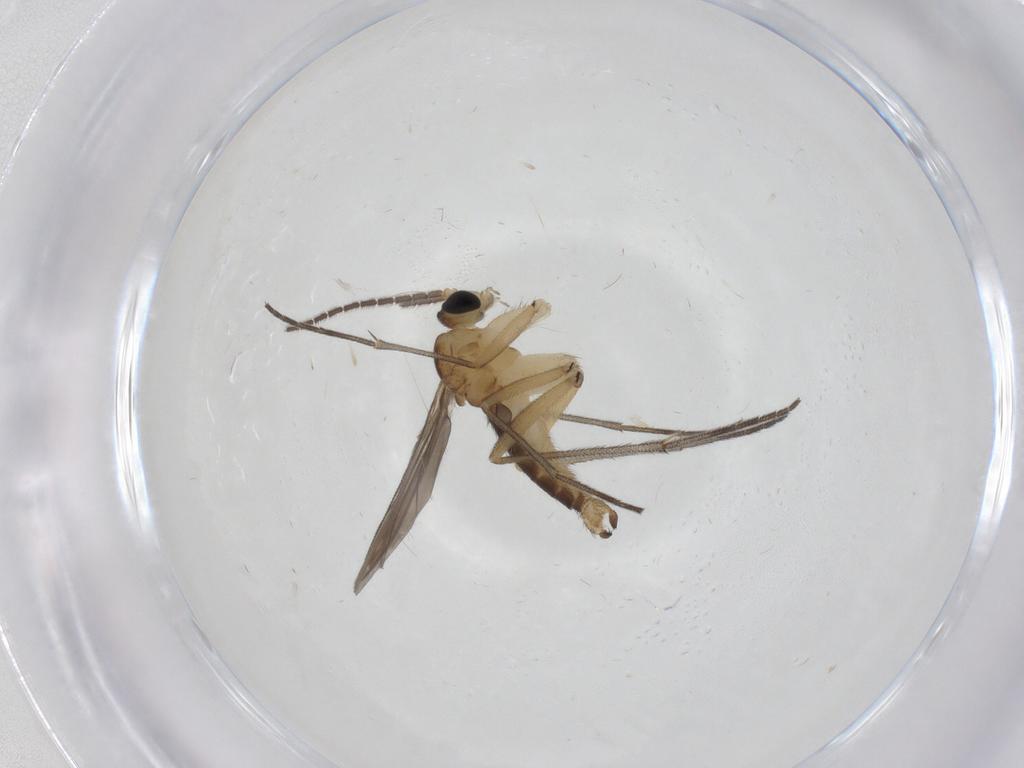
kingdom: Animalia
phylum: Arthropoda
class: Insecta
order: Diptera
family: Sciaridae
